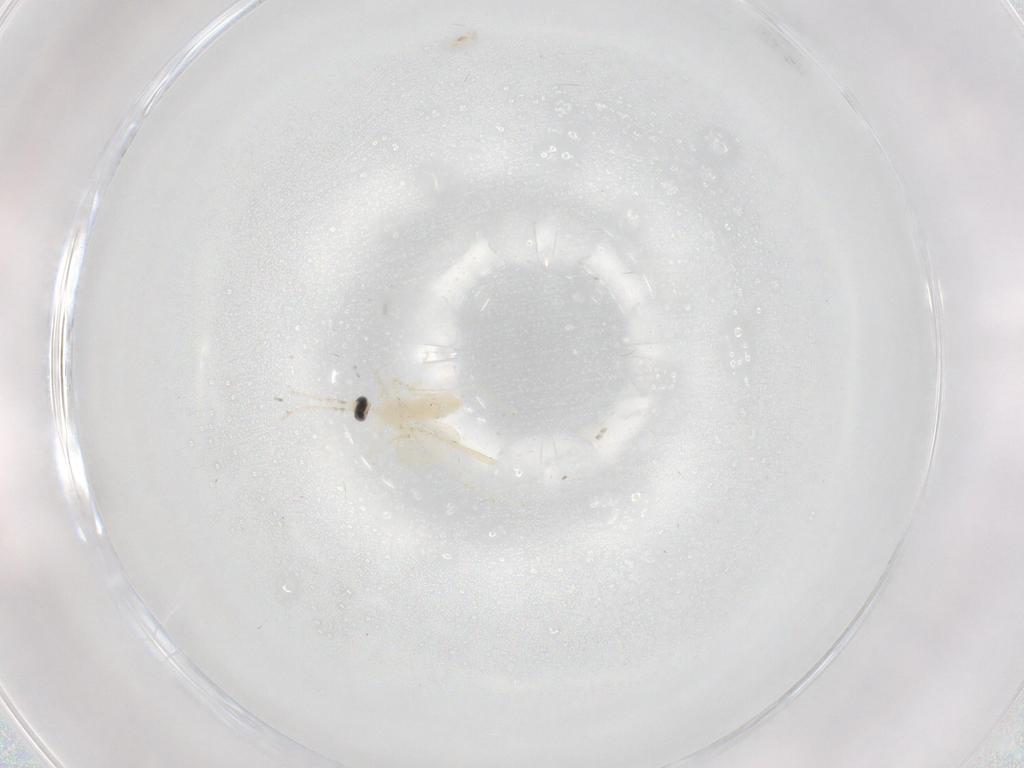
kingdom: Animalia
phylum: Arthropoda
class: Insecta
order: Diptera
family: Cecidomyiidae
